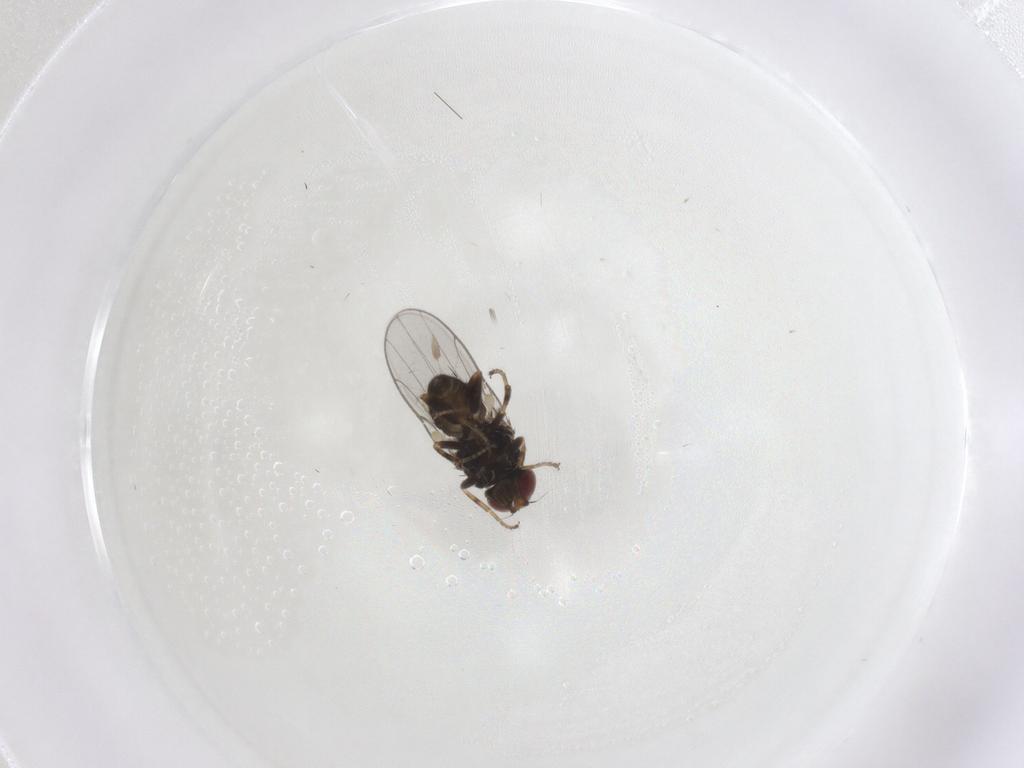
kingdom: Animalia
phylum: Arthropoda
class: Insecta
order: Diptera
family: Chloropidae
